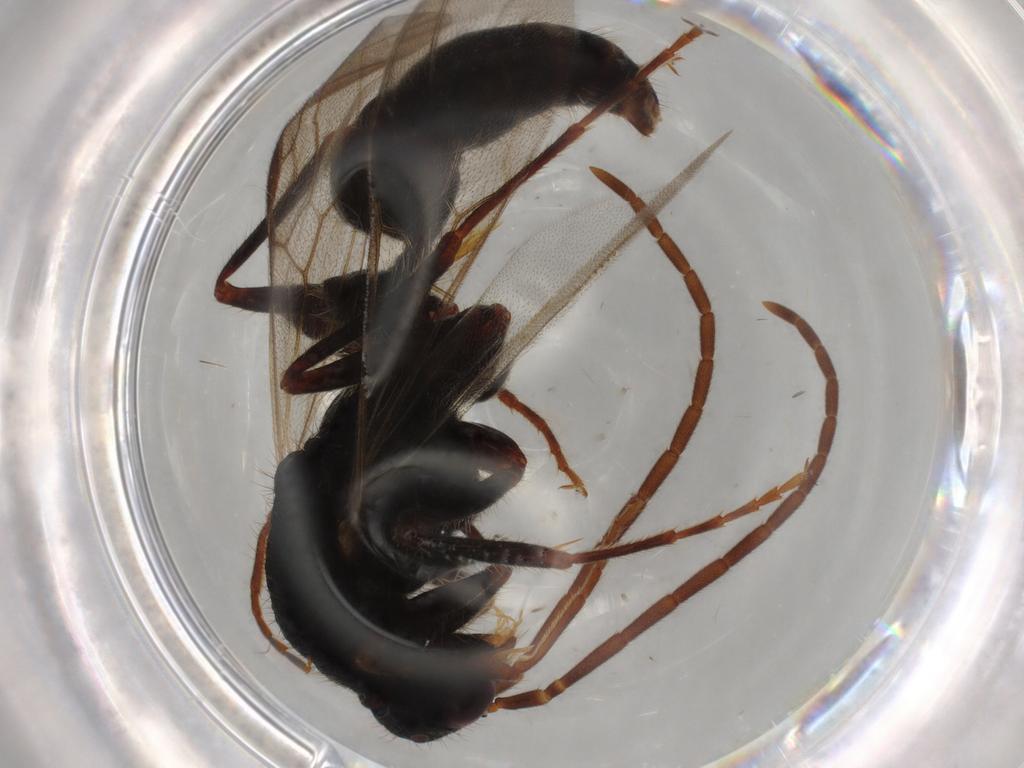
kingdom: Animalia
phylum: Arthropoda
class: Insecta
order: Hymenoptera
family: Formicidae
